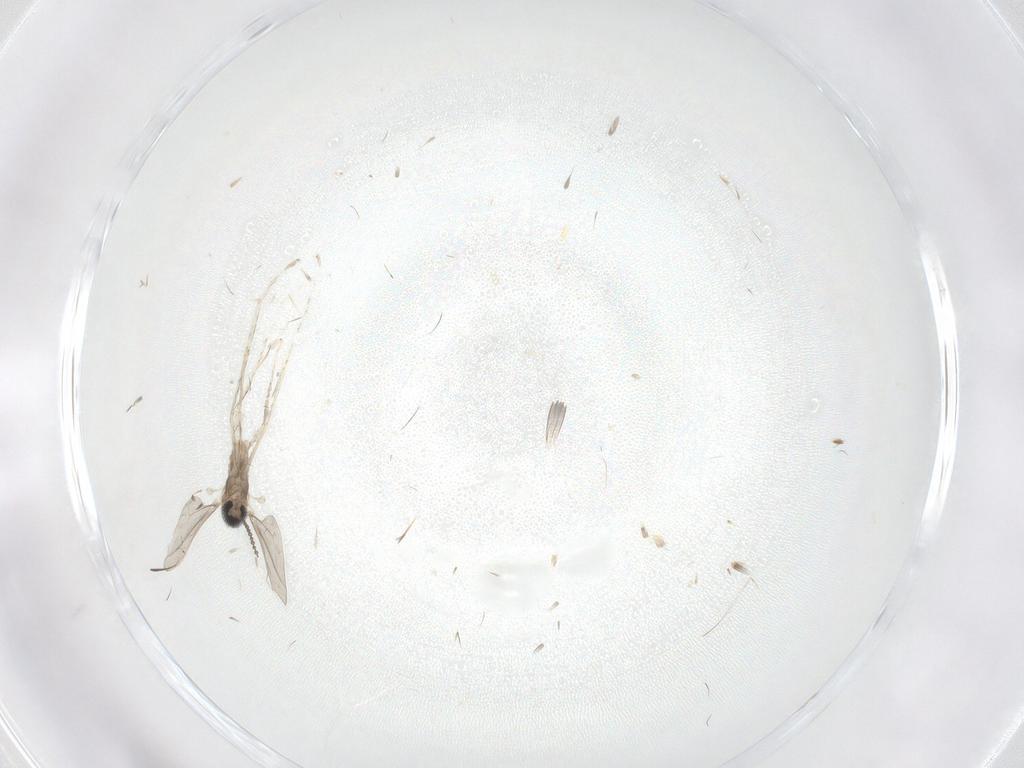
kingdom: Animalia
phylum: Arthropoda
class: Insecta
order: Diptera
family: Cecidomyiidae
